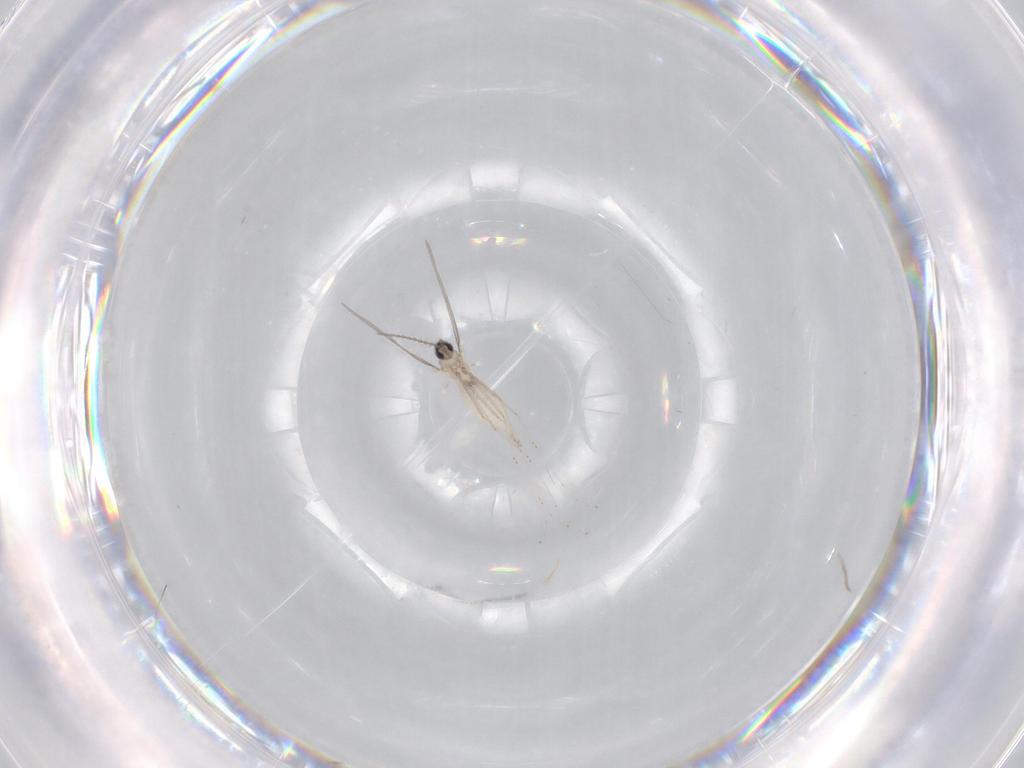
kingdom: Animalia
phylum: Arthropoda
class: Insecta
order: Diptera
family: Cecidomyiidae
